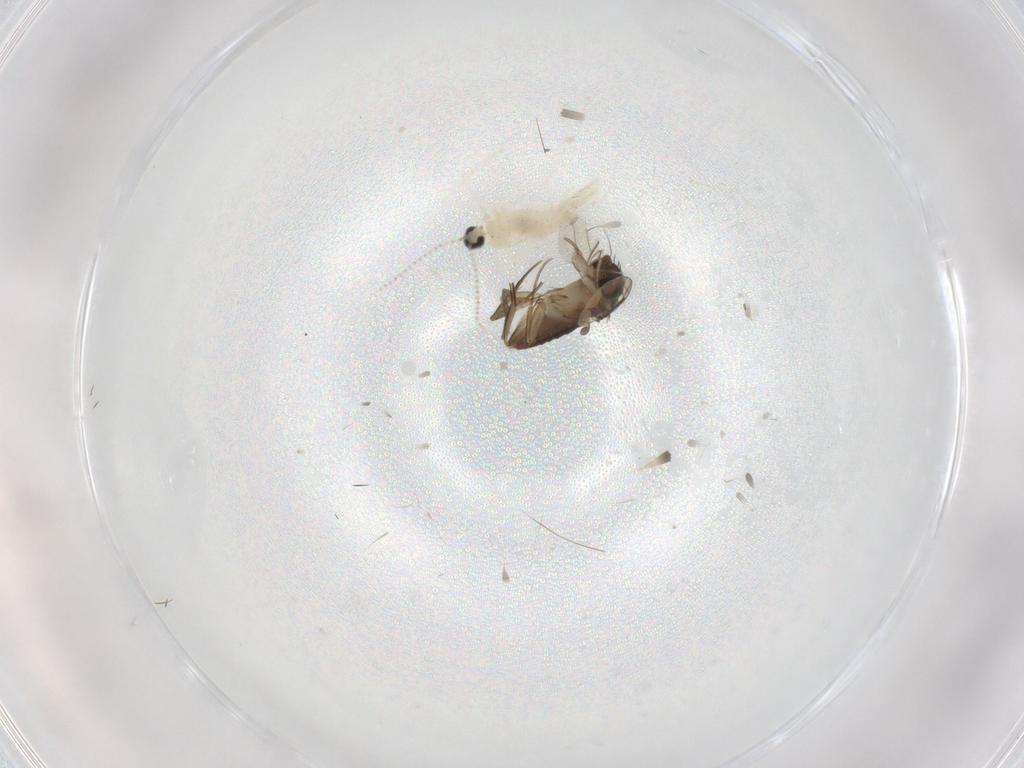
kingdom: Animalia
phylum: Arthropoda
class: Insecta
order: Diptera
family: Phoridae
